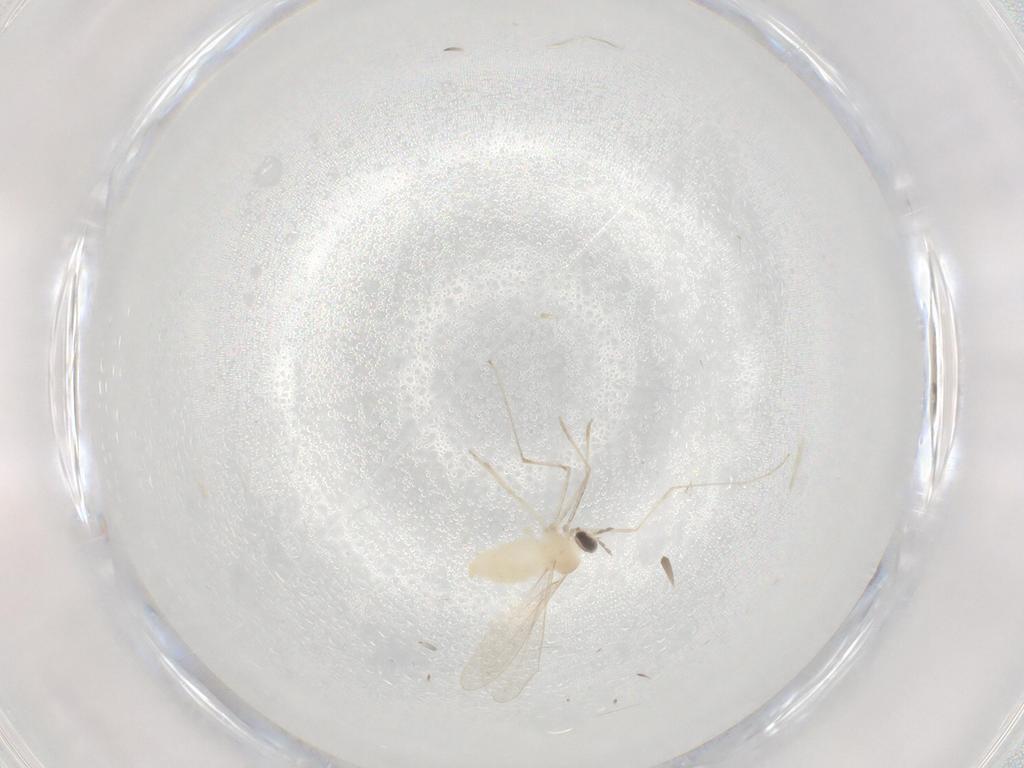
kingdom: Animalia
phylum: Arthropoda
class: Insecta
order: Diptera
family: Cecidomyiidae
